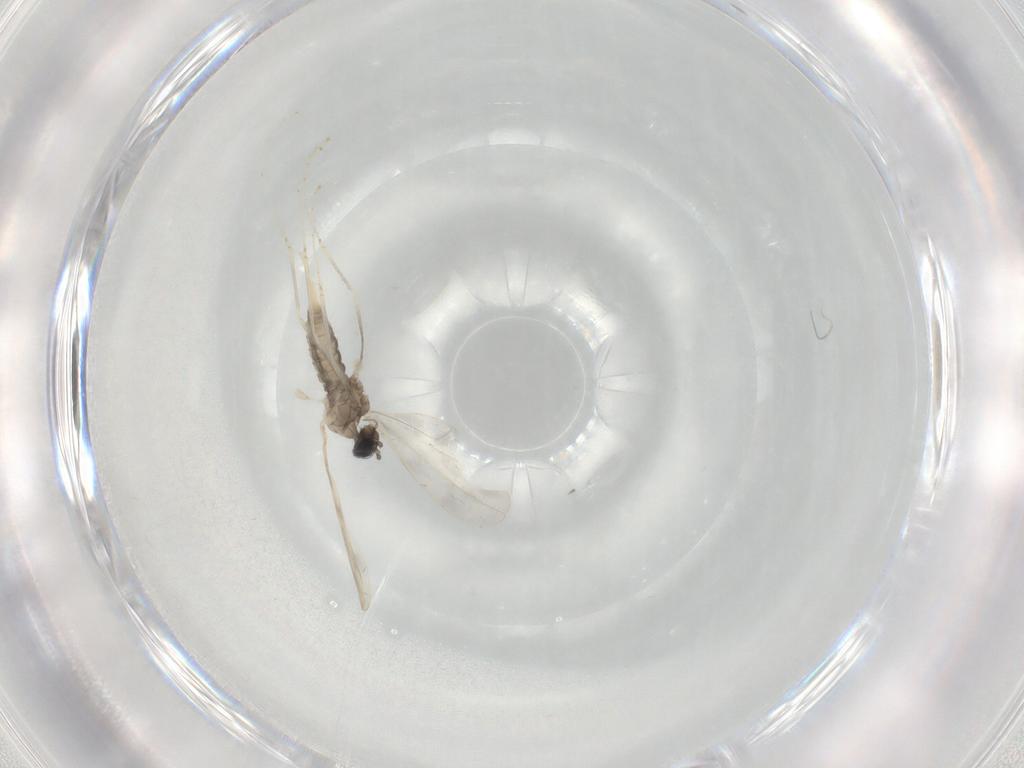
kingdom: Animalia
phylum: Arthropoda
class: Insecta
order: Diptera
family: Cecidomyiidae
